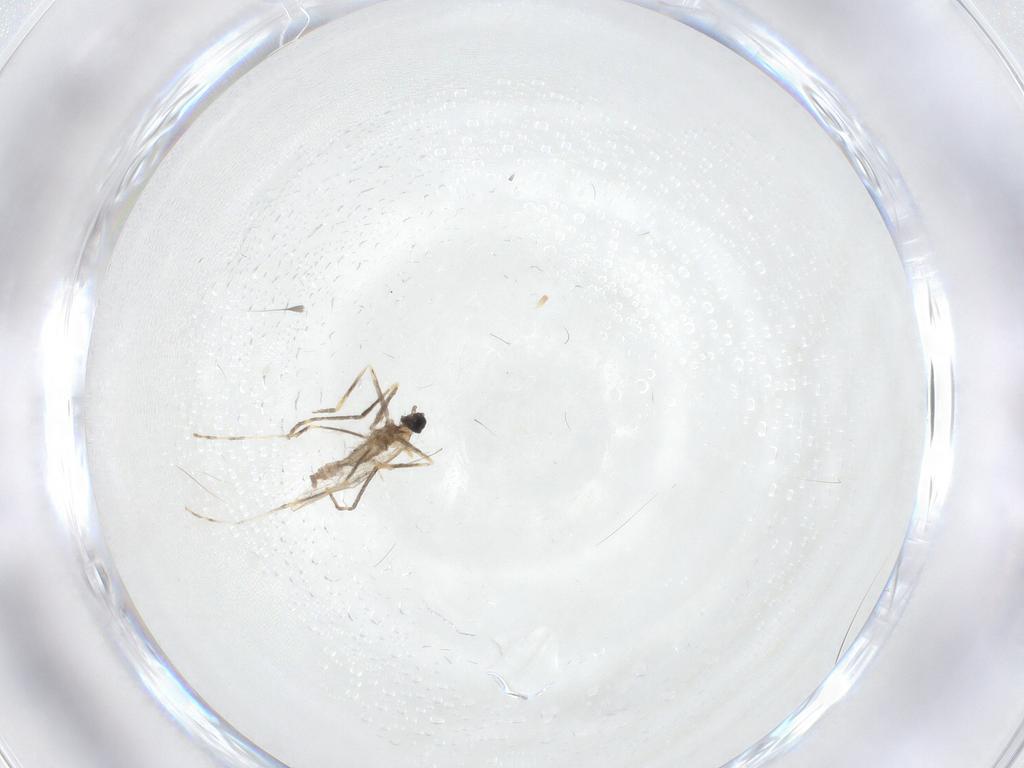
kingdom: Animalia
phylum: Arthropoda
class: Insecta
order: Diptera
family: Cecidomyiidae
